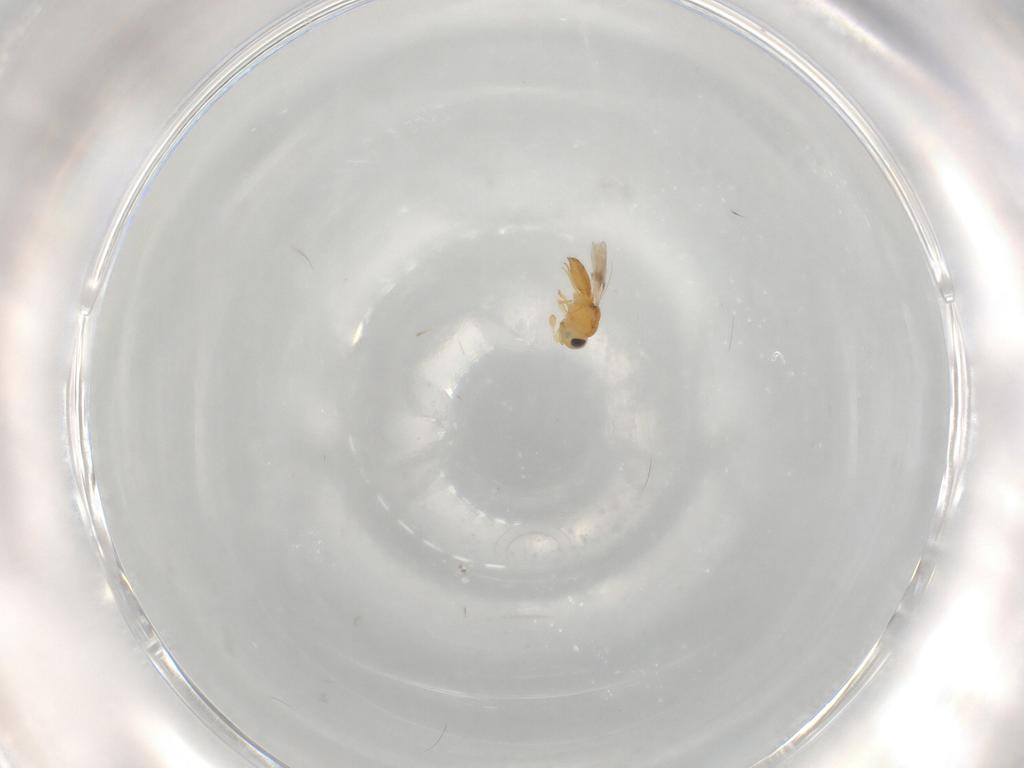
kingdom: Animalia
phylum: Arthropoda
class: Insecta
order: Hymenoptera
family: Scelionidae
